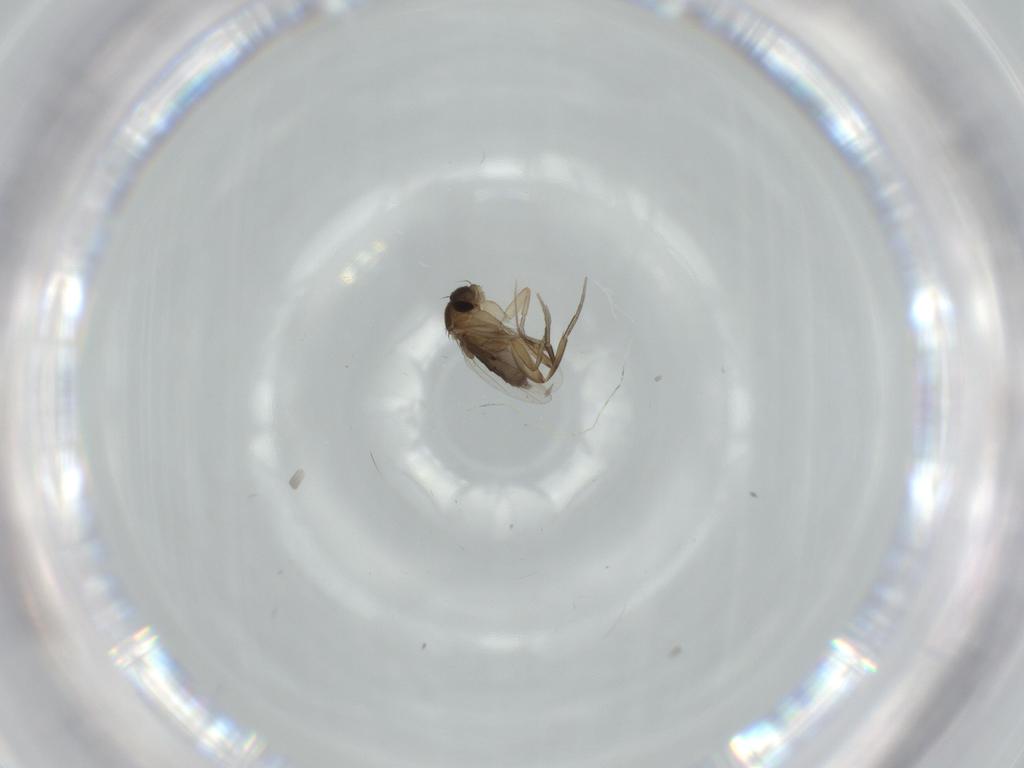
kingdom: Animalia
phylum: Arthropoda
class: Insecta
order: Diptera
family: Phoridae
